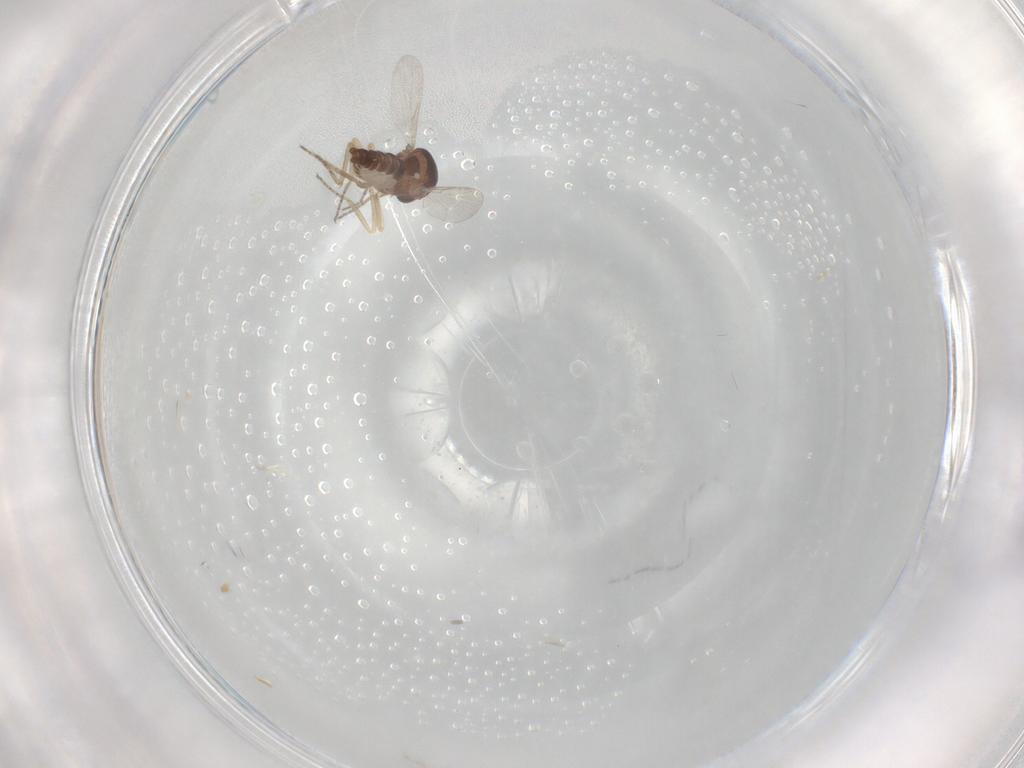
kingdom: Animalia
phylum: Arthropoda
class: Insecta
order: Diptera
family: Ceratopogonidae
